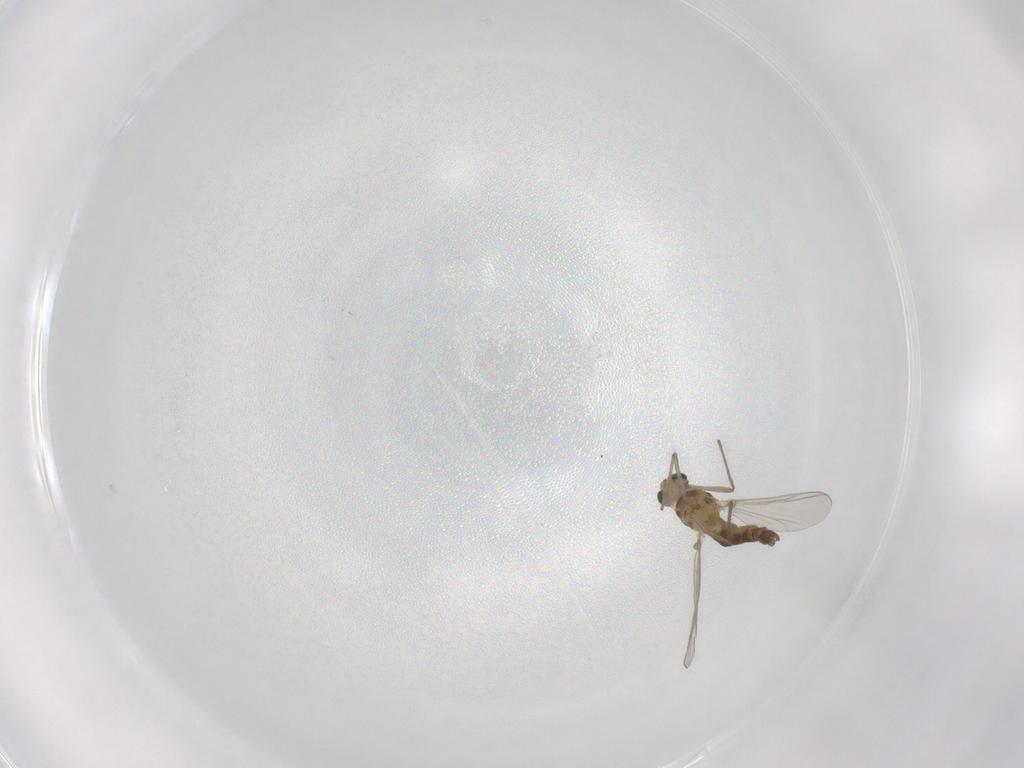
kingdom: Animalia
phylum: Arthropoda
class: Insecta
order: Diptera
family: Chironomidae
